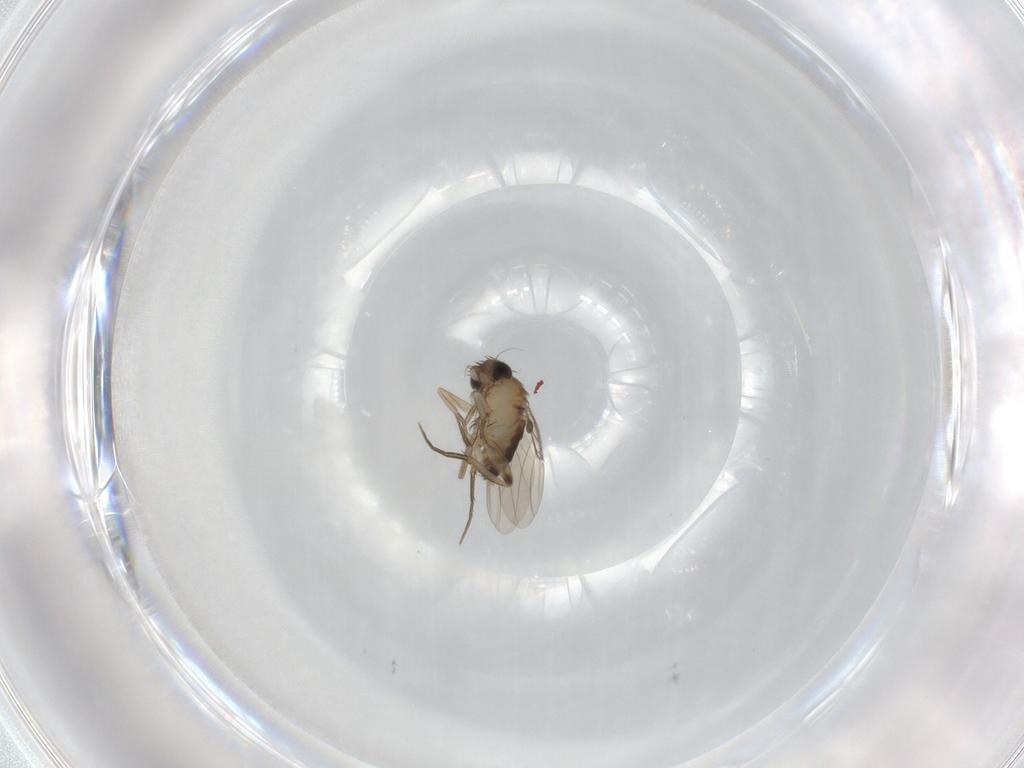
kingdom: Animalia
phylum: Arthropoda
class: Insecta
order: Diptera
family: Phoridae
